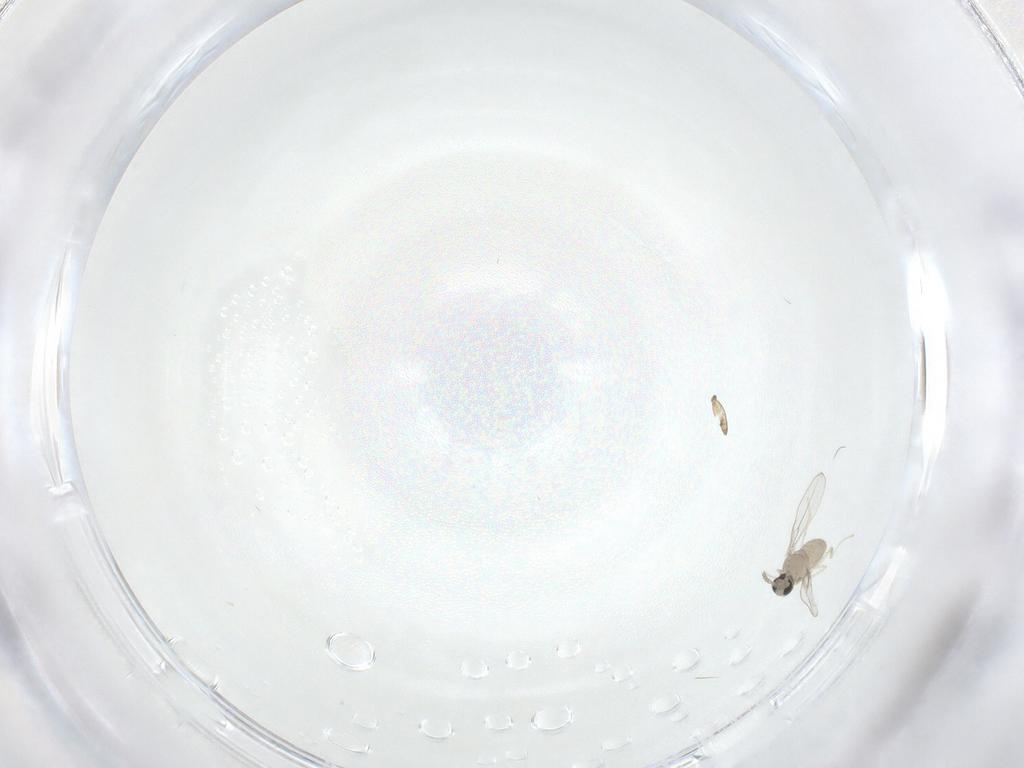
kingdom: Animalia
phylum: Arthropoda
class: Insecta
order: Diptera
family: Cecidomyiidae
